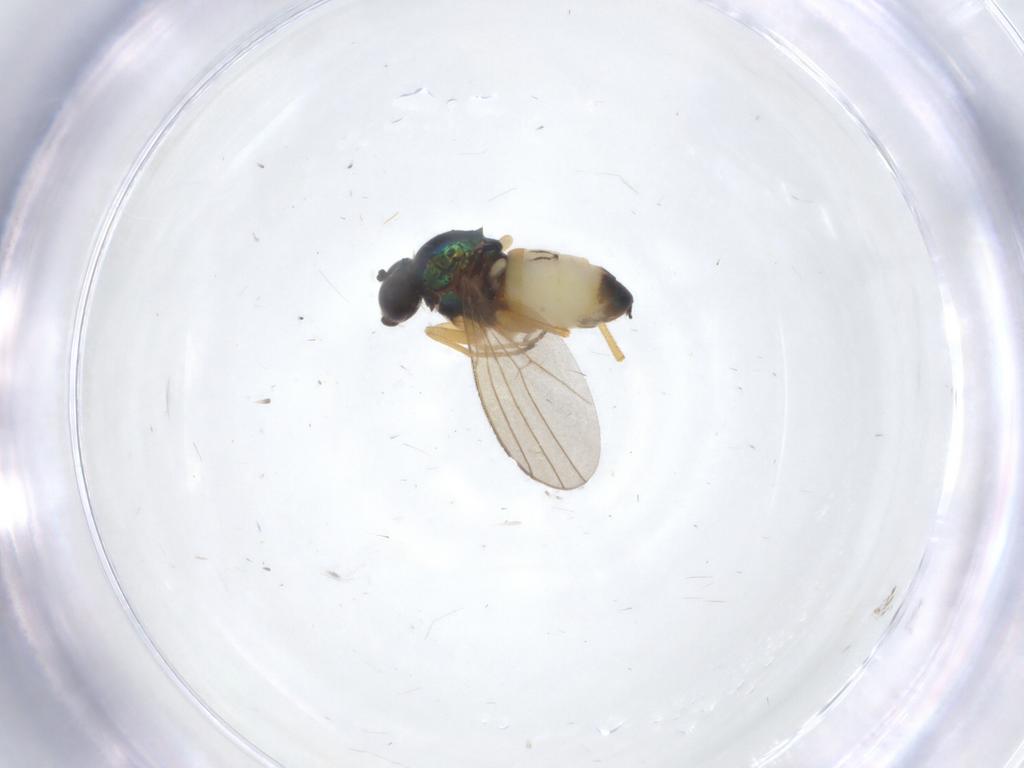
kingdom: Animalia
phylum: Arthropoda
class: Insecta
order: Diptera
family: Dolichopodidae
